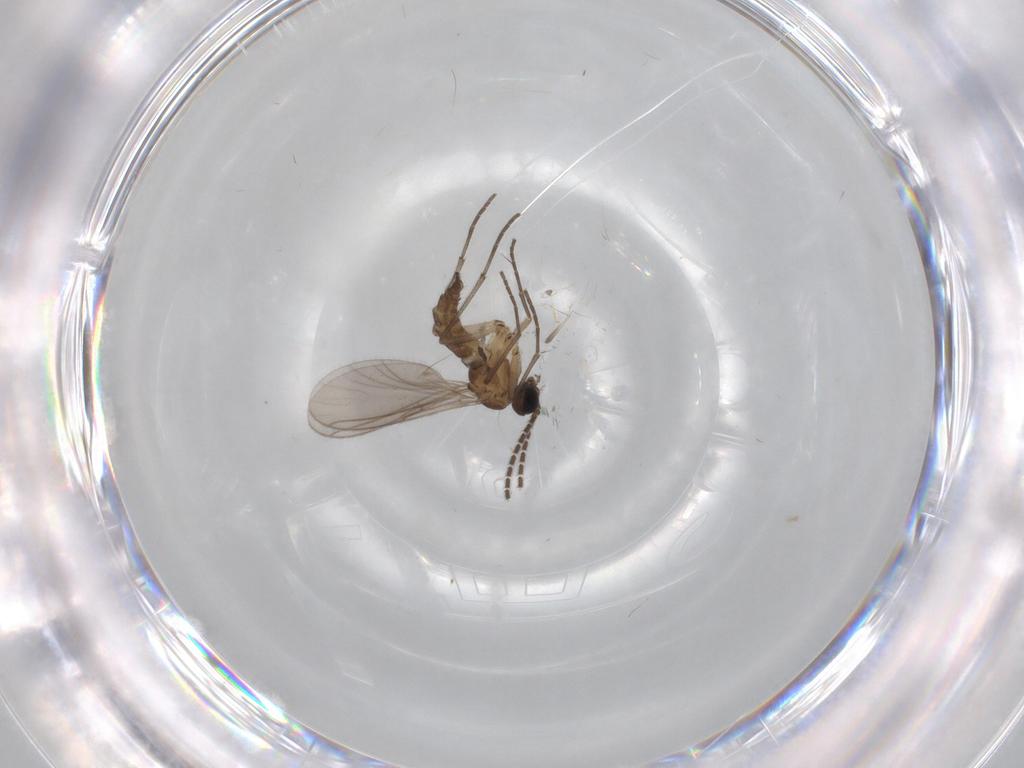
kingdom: Animalia
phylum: Arthropoda
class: Insecta
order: Diptera
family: Sciaridae
